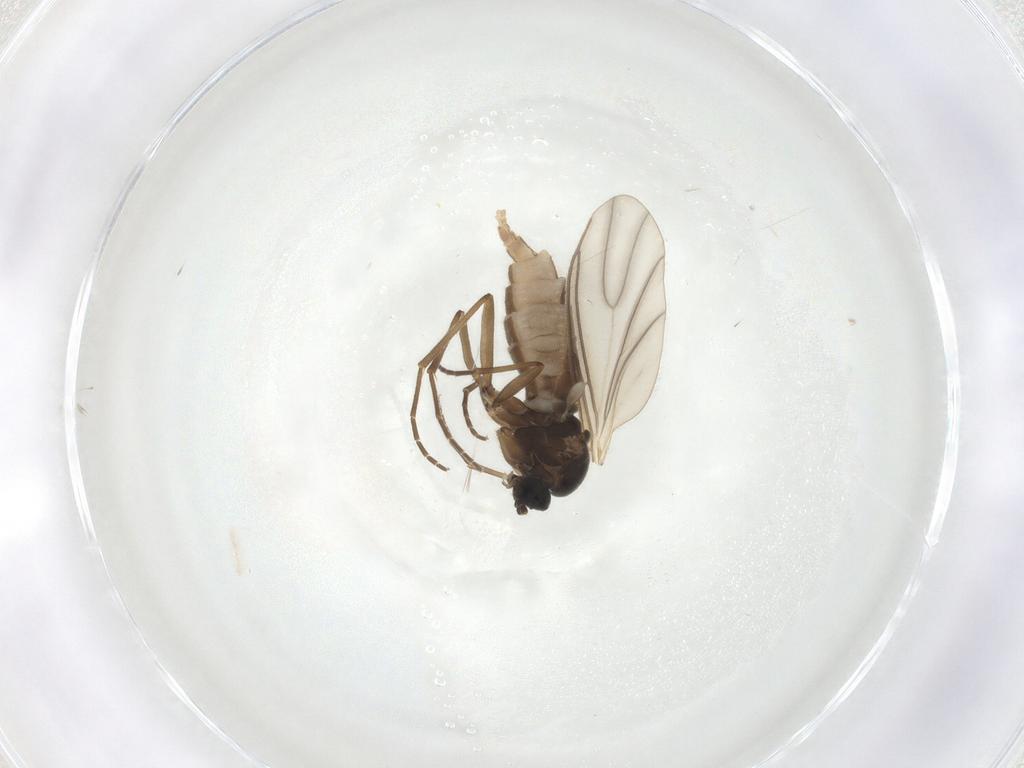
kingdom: Animalia
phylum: Arthropoda
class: Insecta
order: Diptera
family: Sciaridae
